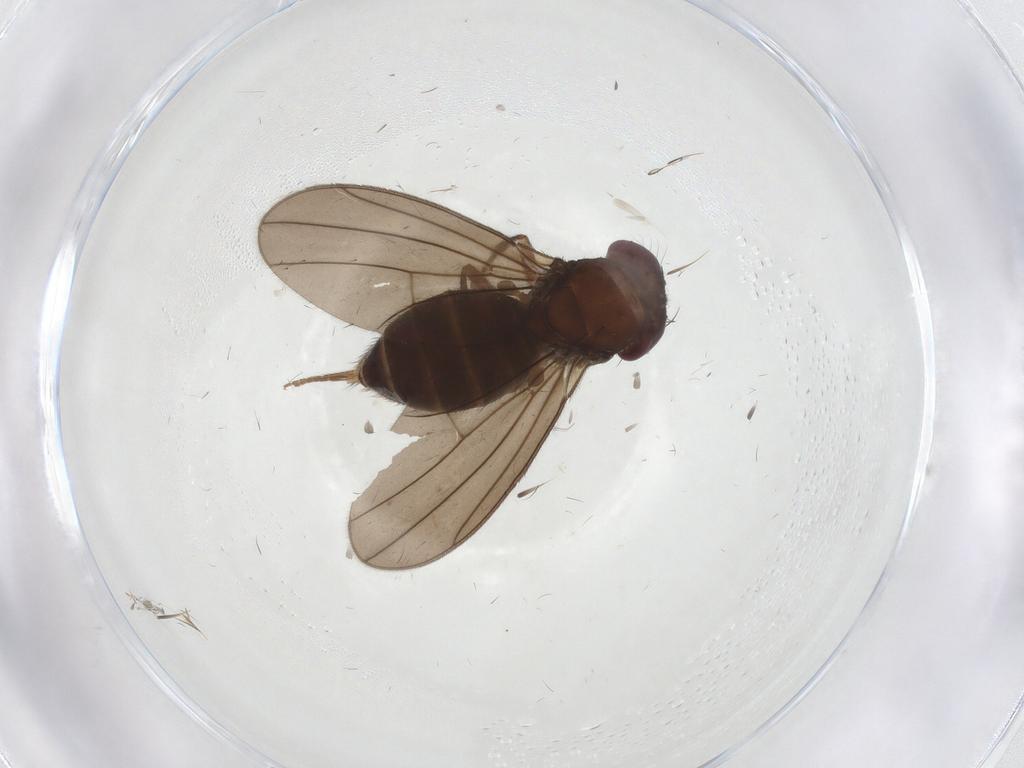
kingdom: Animalia
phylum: Arthropoda
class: Insecta
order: Diptera
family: Drosophilidae
